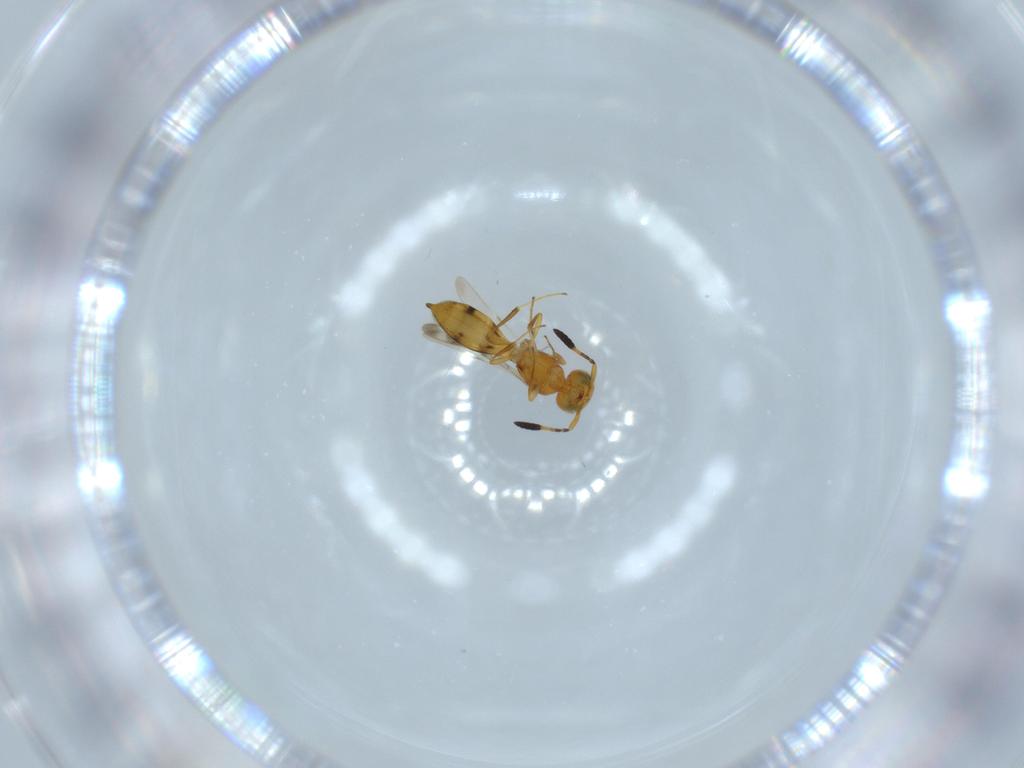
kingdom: Animalia
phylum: Arthropoda
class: Insecta
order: Hymenoptera
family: Scelionidae
